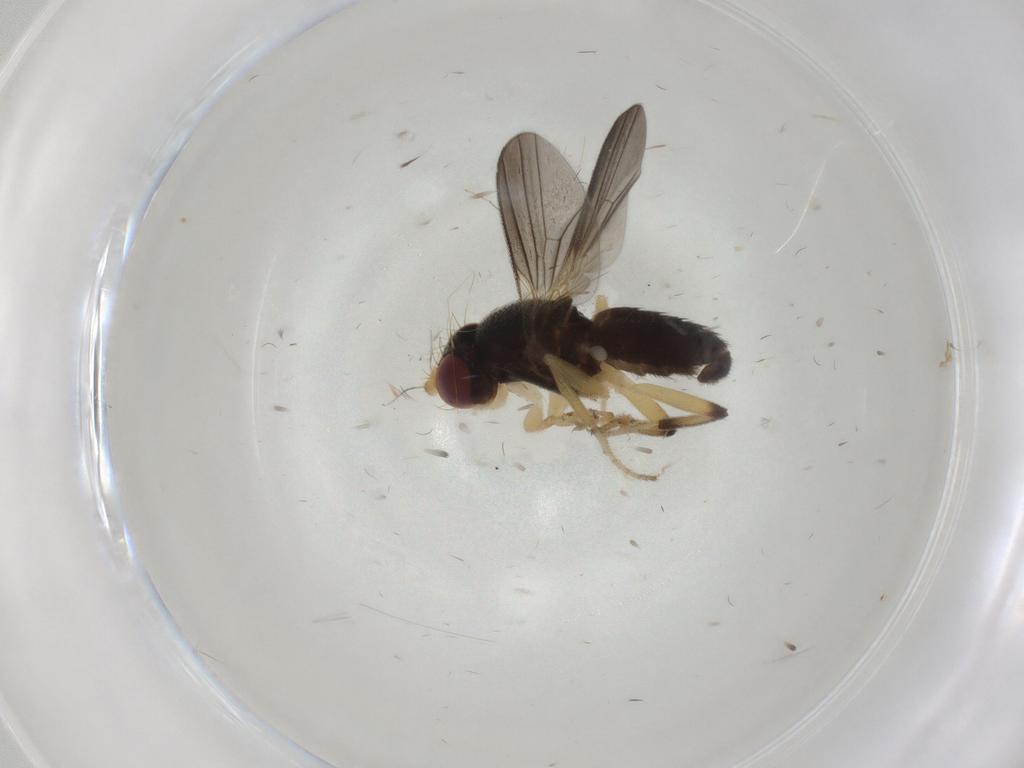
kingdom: Animalia
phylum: Arthropoda
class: Insecta
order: Diptera
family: Clusiidae
